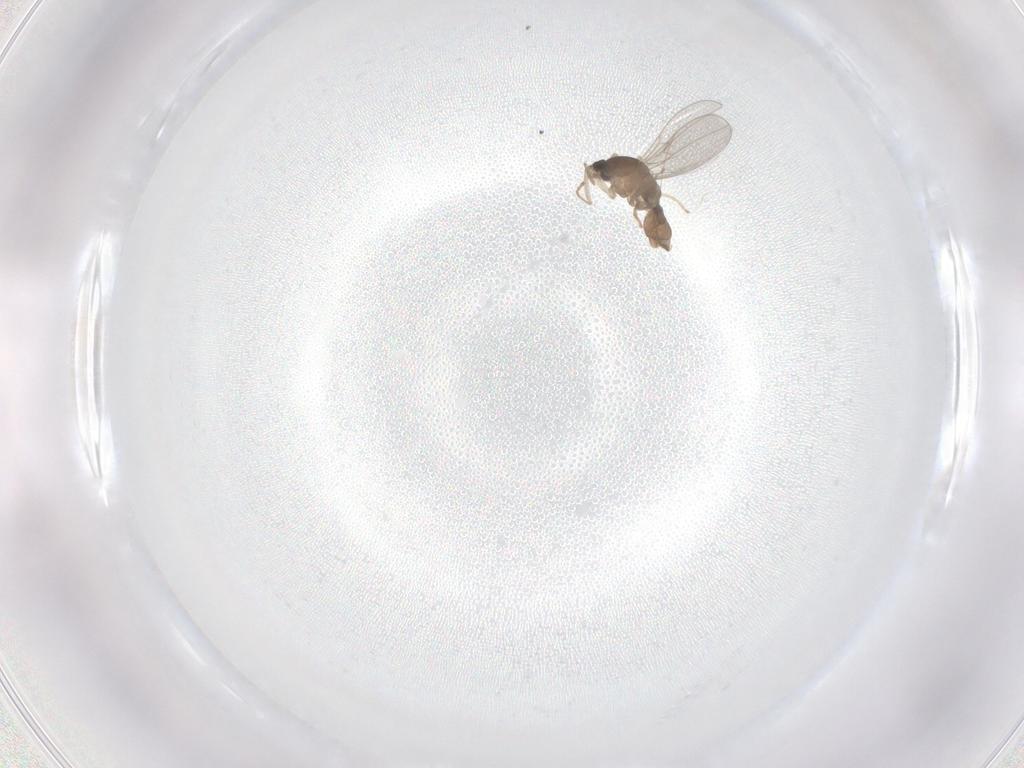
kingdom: Animalia
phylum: Arthropoda
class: Insecta
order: Diptera
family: Cecidomyiidae
